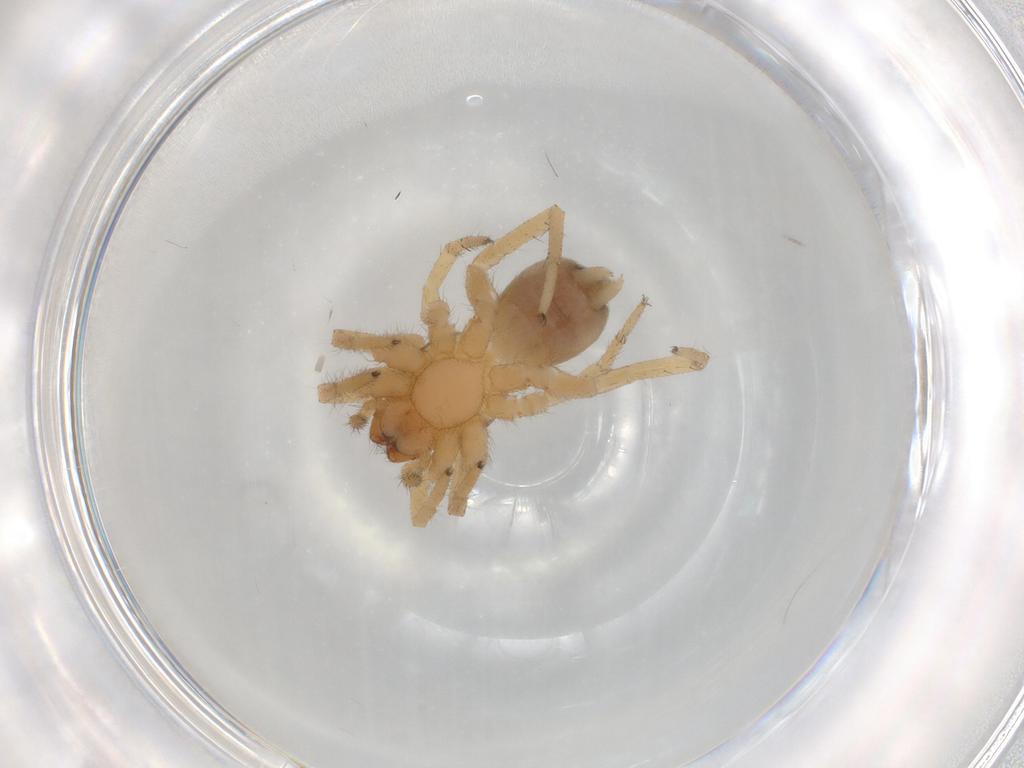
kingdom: Animalia
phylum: Arthropoda
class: Arachnida
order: Araneae
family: Gnaphosidae
